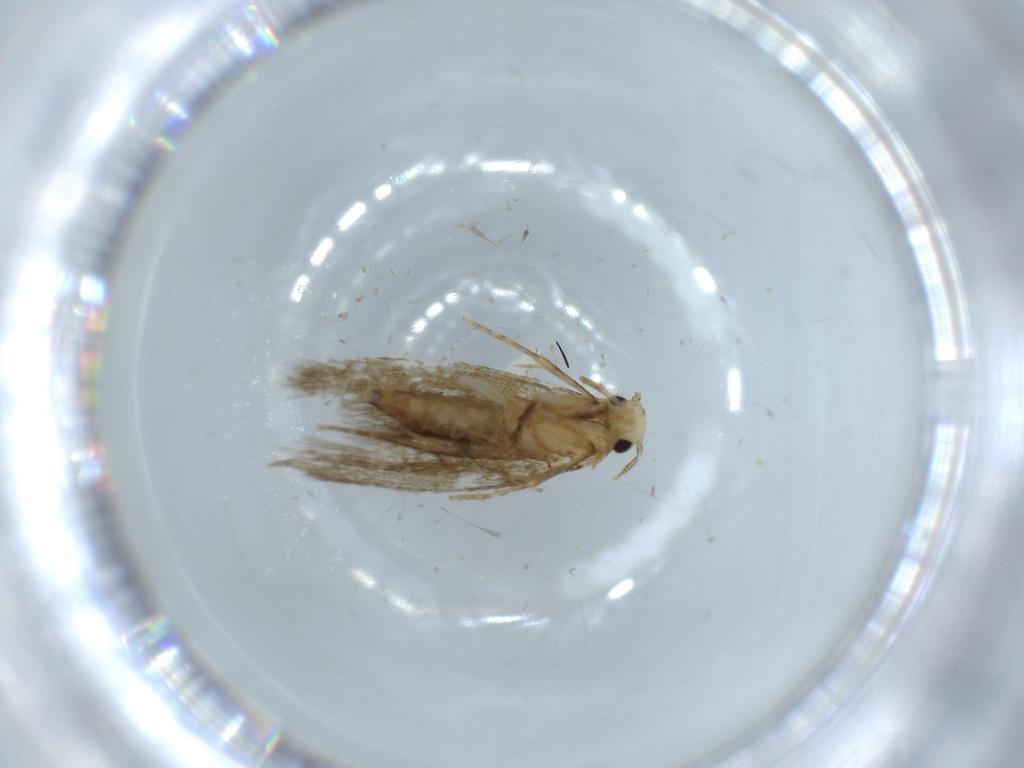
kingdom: Animalia
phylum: Arthropoda
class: Insecta
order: Lepidoptera
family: Tineidae
